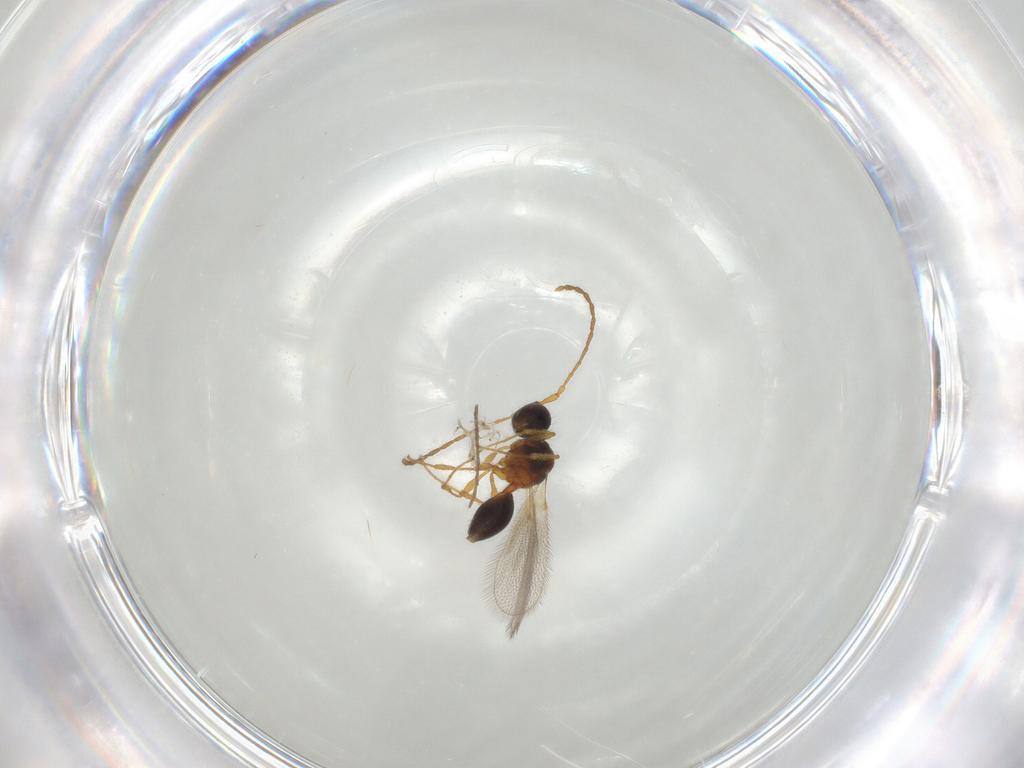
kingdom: Animalia
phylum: Arthropoda
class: Insecta
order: Hymenoptera
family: Diapriidae
